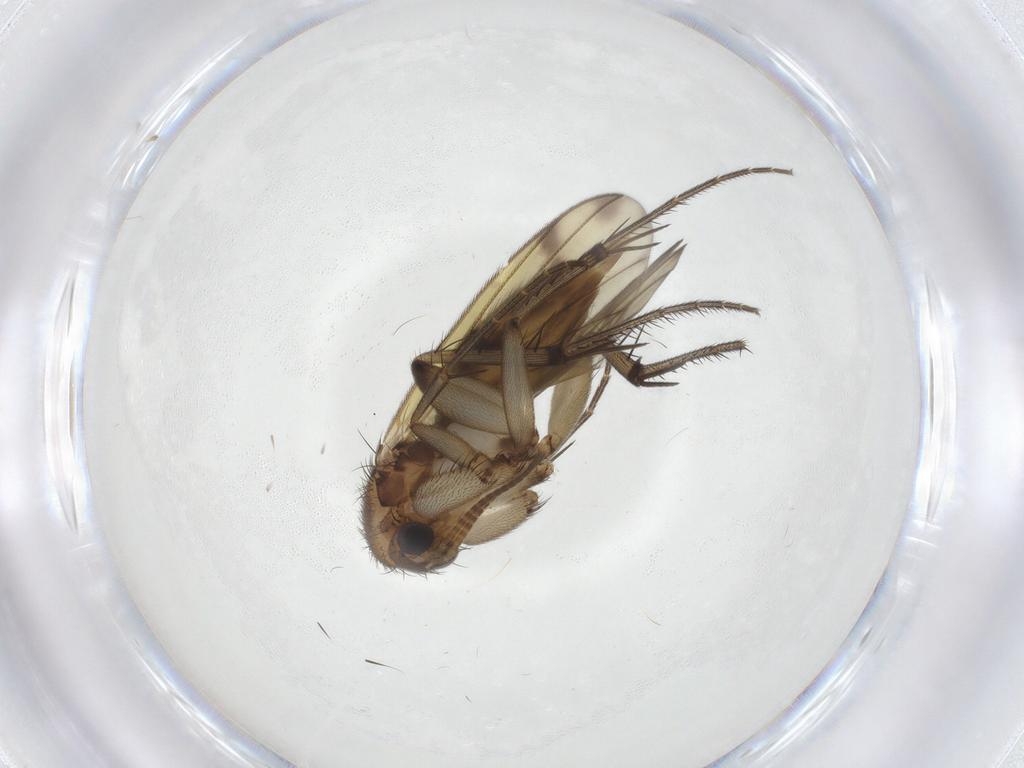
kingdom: Animalia
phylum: Arthropoda
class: Insecta
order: Diptera
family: Mycetophilidae
